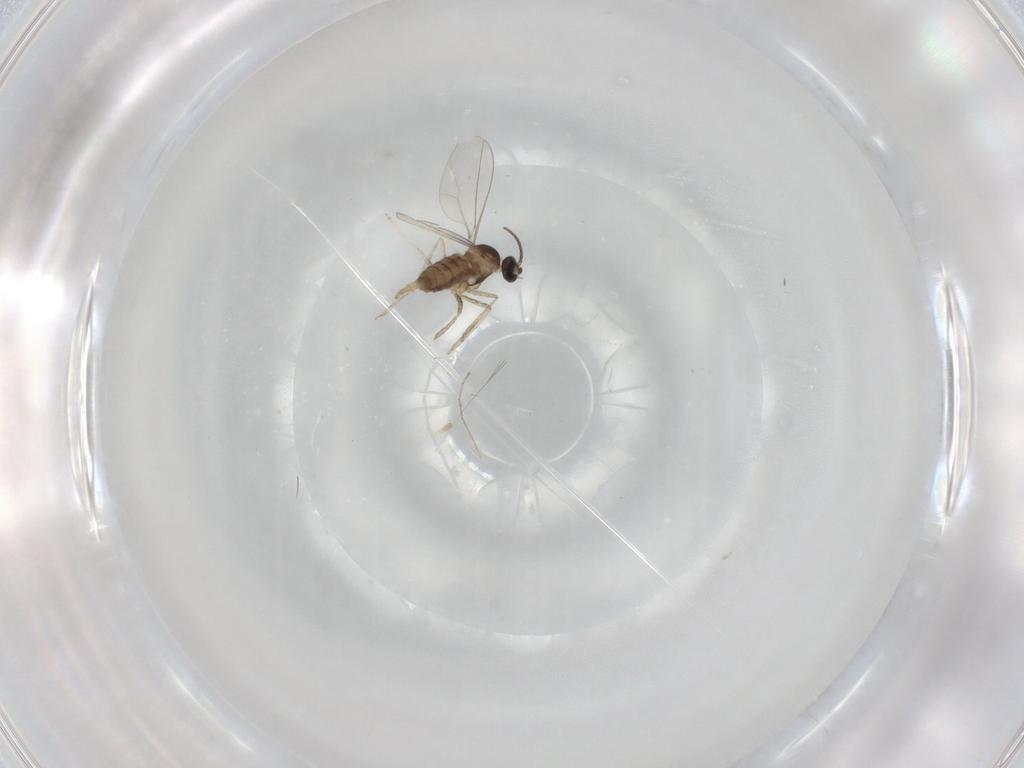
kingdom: Animalia
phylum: Arthropoda
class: Insecta
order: Diptera
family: Cecidomyiidae
